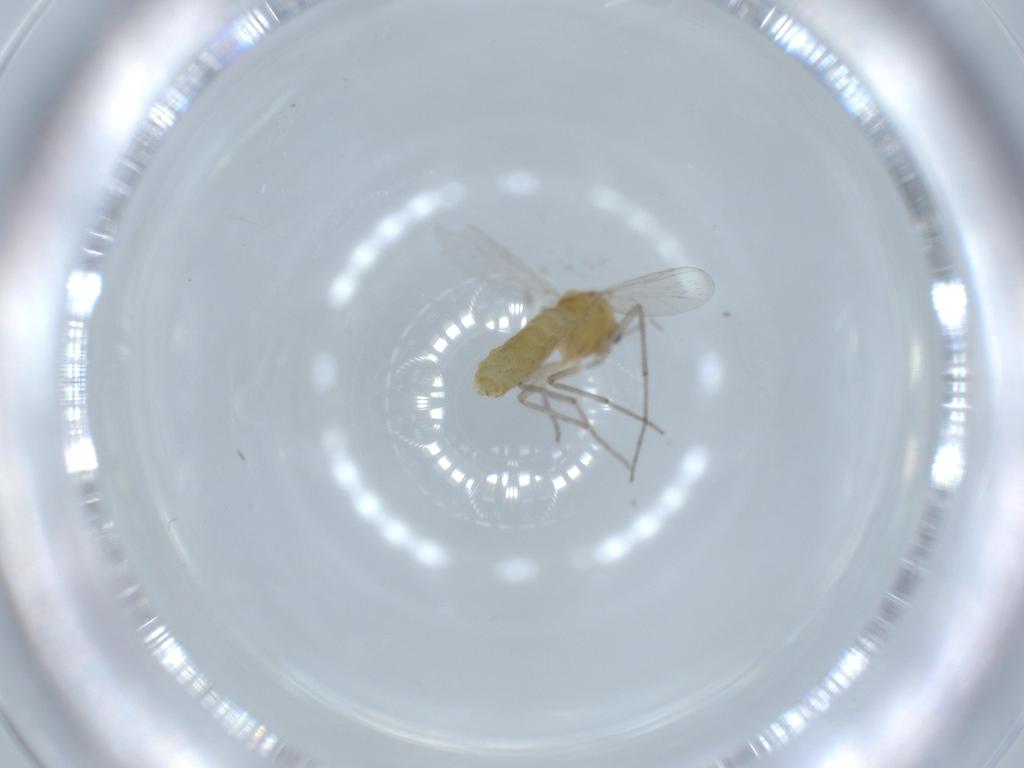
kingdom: Animalia
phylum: Arthropoda
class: Insecta
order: Diptera
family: Chironomidae
